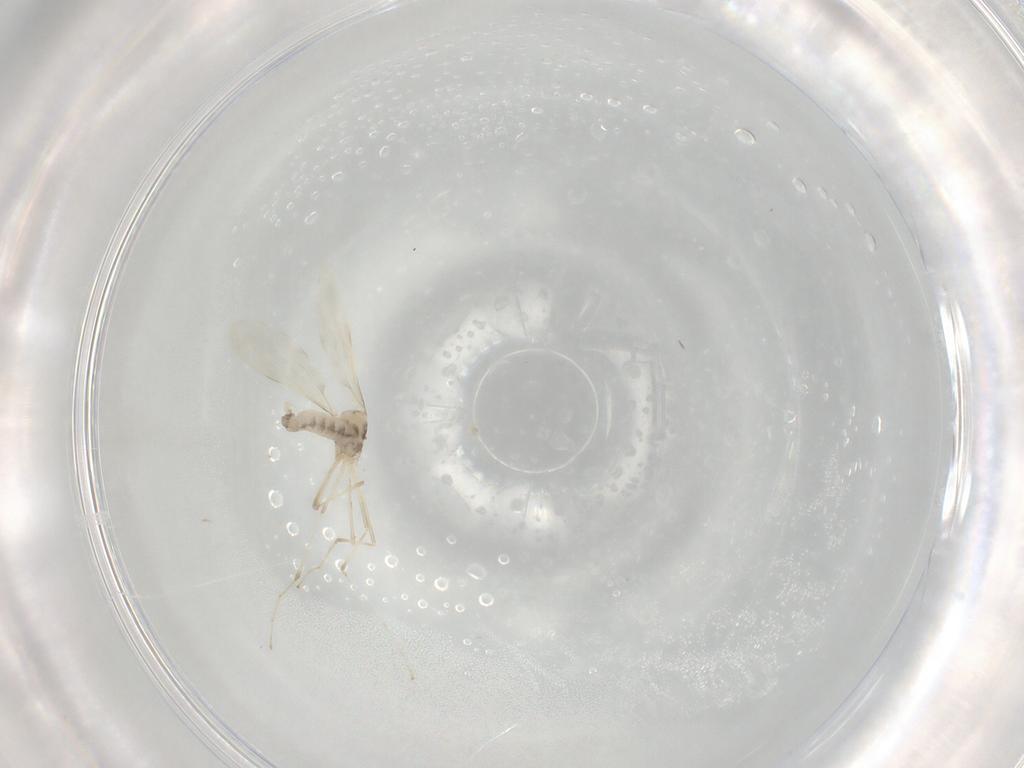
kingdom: Animalia
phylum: Arthropoda
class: Insecta
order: Diptera
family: Cecidomyiidae
